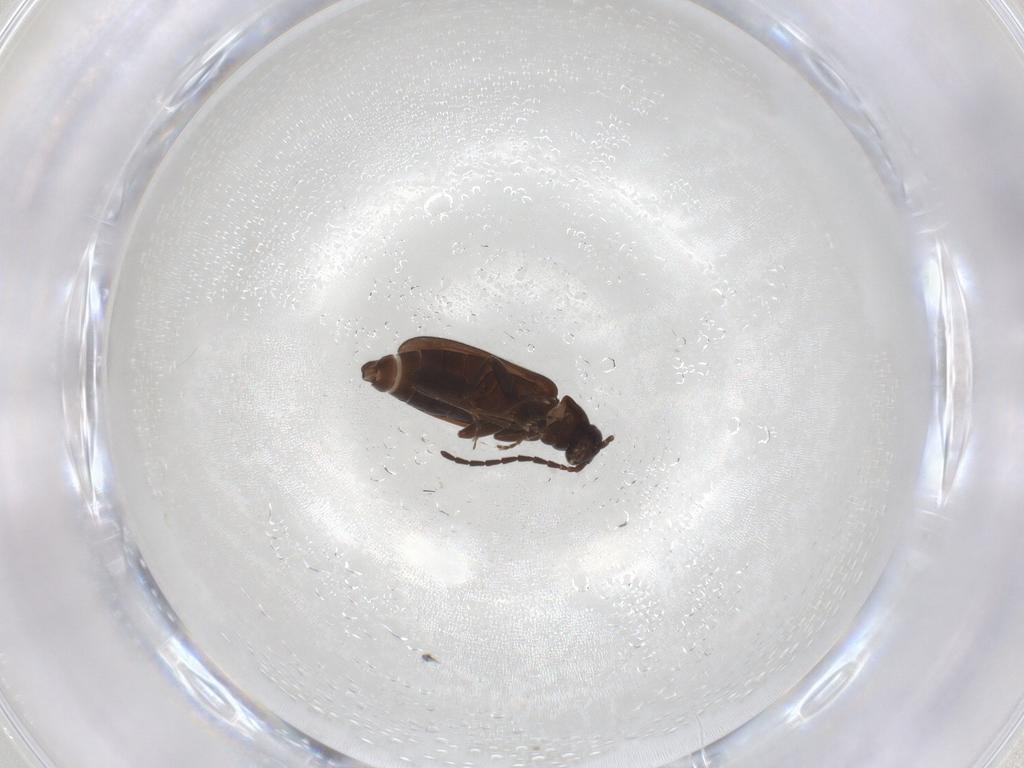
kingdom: Animalia
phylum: Arthropoda
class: Insecta
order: Coleoptera
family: Scraptiidae
